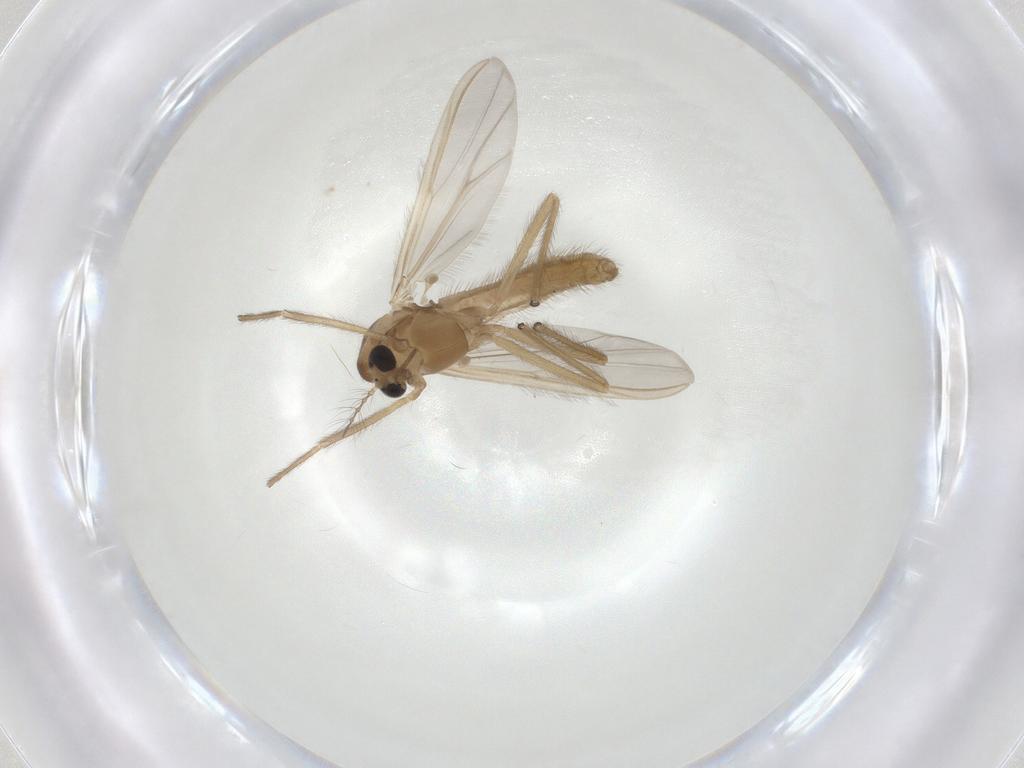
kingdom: Animalia
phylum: Arthropoda
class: Insecta
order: Diptera
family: Chironomidae
